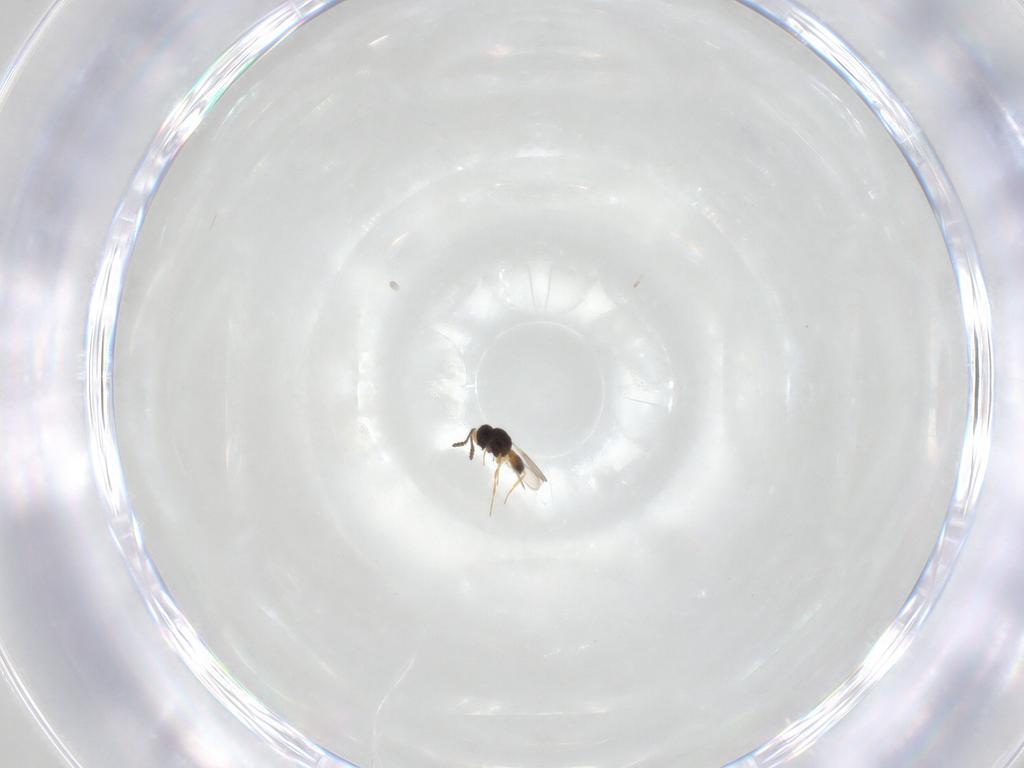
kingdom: Animalia
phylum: Arthropoda
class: Insecta
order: Hymenoptera
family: Scelionidae
